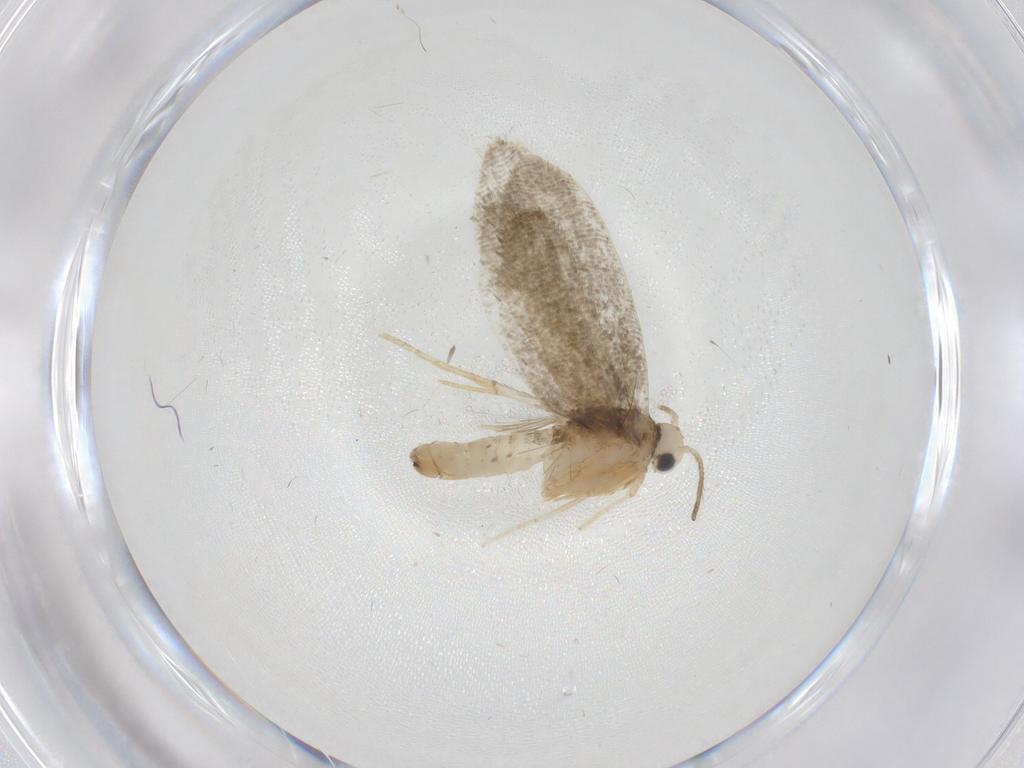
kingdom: Animalia
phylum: Arthropoda
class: Insecta
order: Lepidoptera
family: Psychidae
